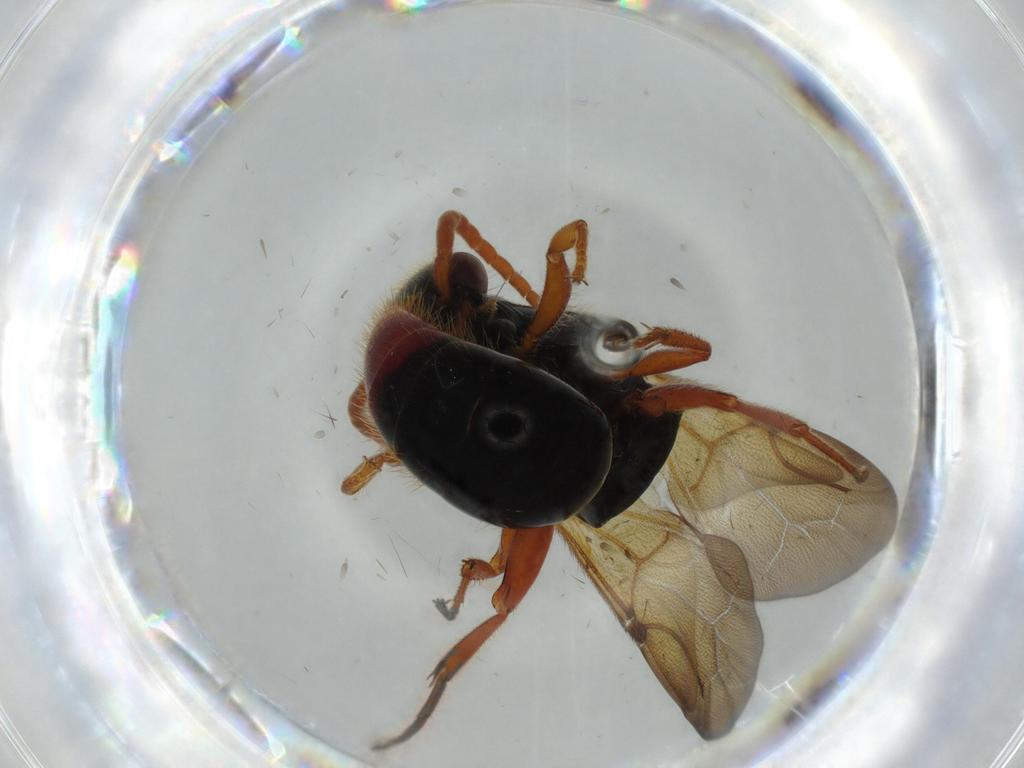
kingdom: Animalia
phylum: Arthropoda
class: Insecta
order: Hymenoptera
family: Bethylidae
